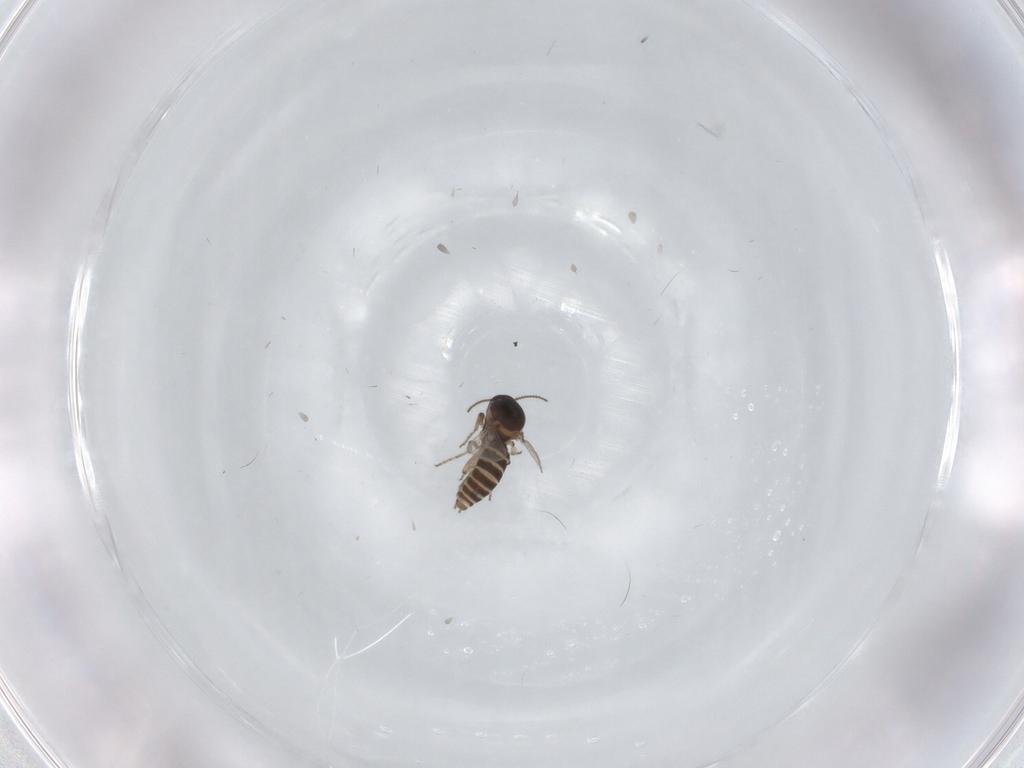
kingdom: Animalia
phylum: Arthropoda
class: Insecta
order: Diptera
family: Ceratopogonidae
